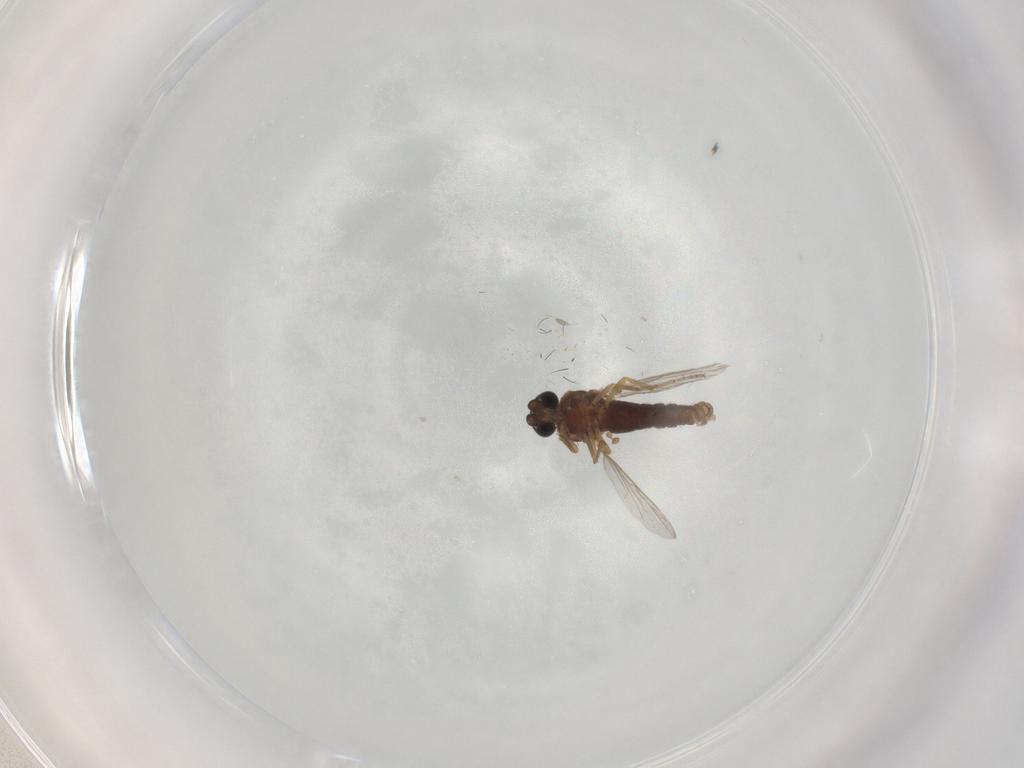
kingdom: Animalia
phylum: Arthropoda
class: Insecta
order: Diptera
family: Ceratopogonidae
